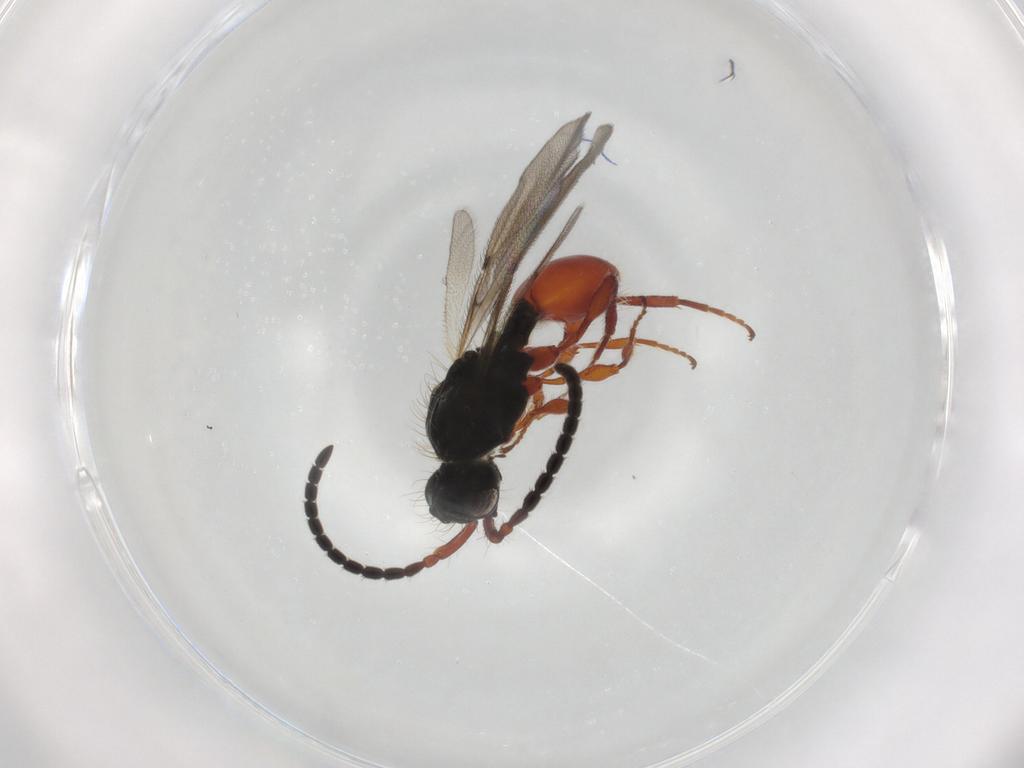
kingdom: Animalia
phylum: Arthropoda
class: Insecta
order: Hymenoptera
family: Diapriidae
